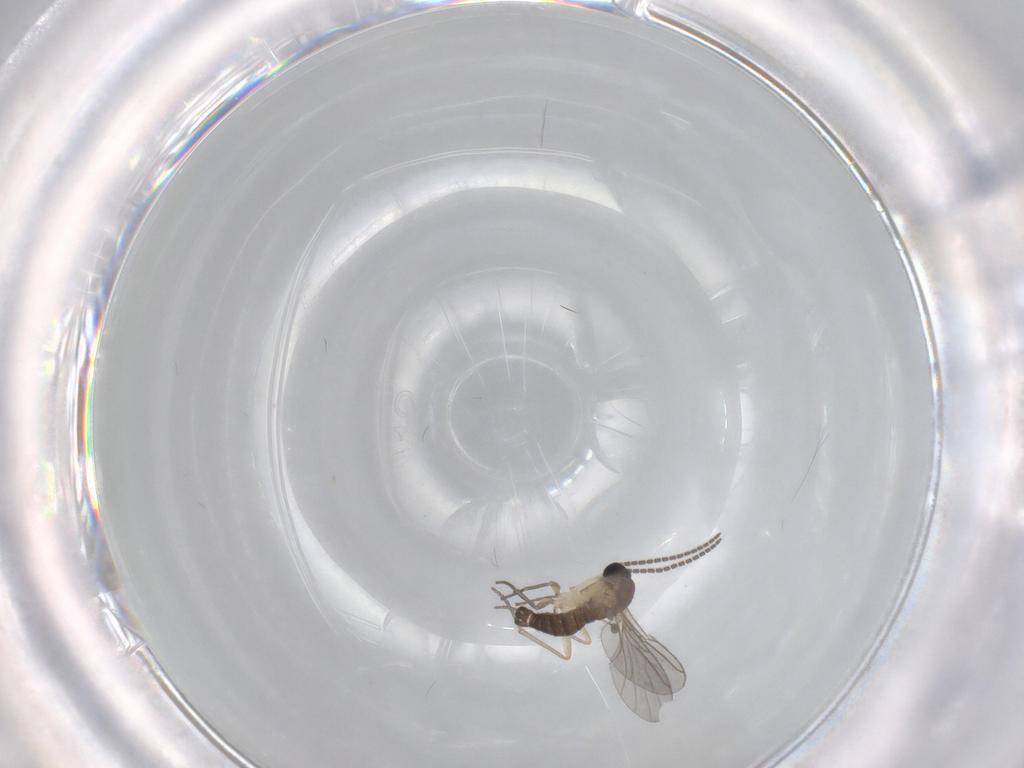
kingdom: Animalia
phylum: Arthropoda
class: Insecta
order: Diptera
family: Sciaridae
